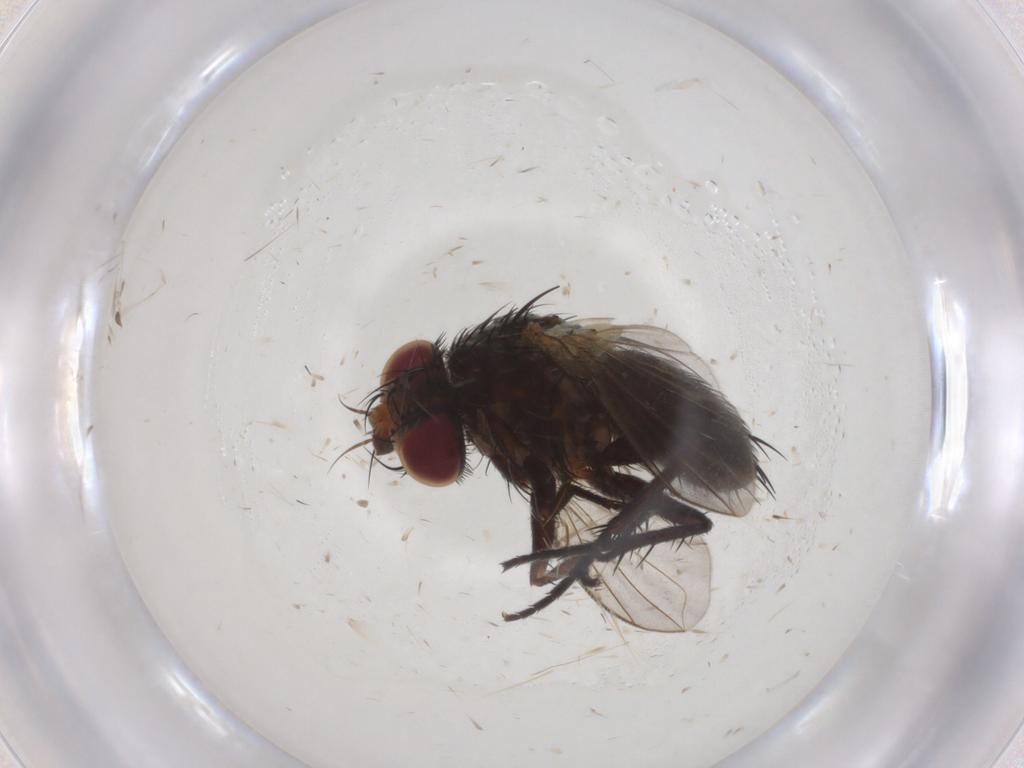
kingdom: Animalia
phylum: Arthropoda
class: Insecta
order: Diptera
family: Tachinidae
